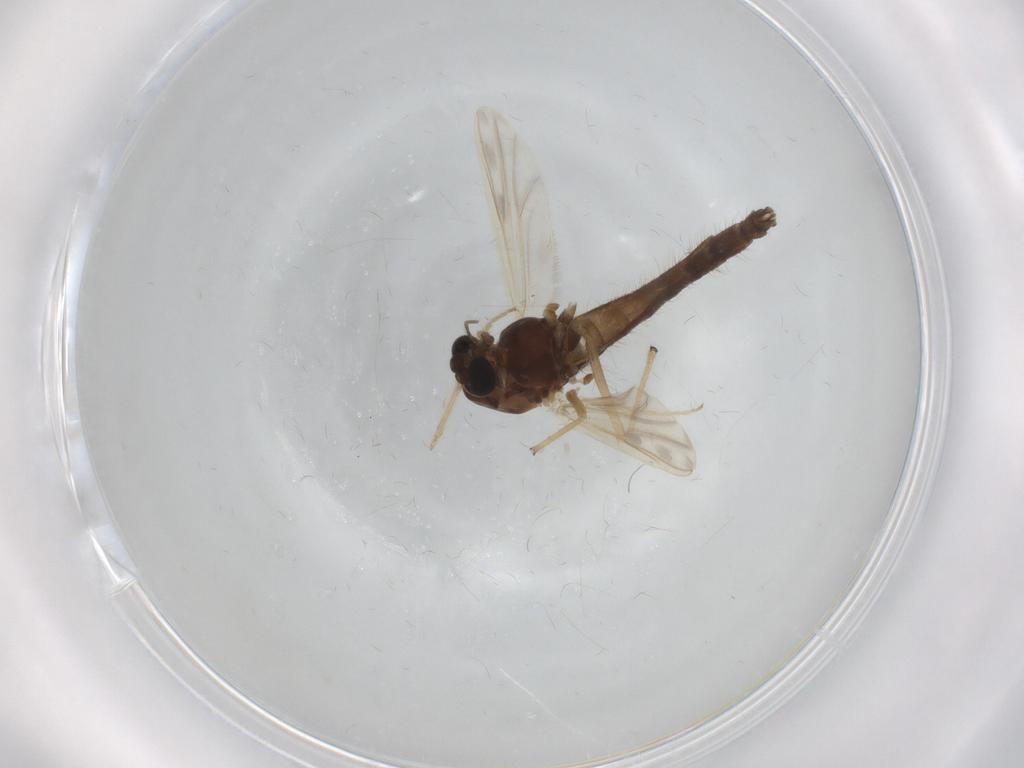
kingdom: Animalia
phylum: Arthropoda
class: Insecta
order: Diptera
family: Chironomidae
